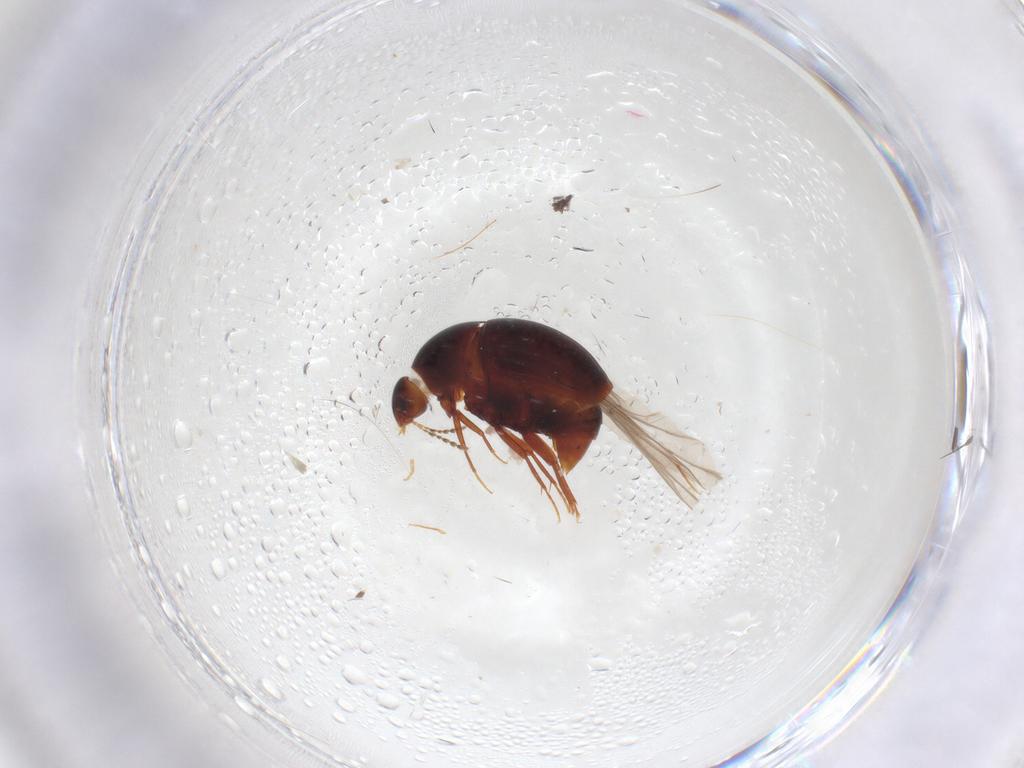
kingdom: Animalia
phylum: Arthropoda
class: Insecta
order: Coleoptera
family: Staphylinidae
